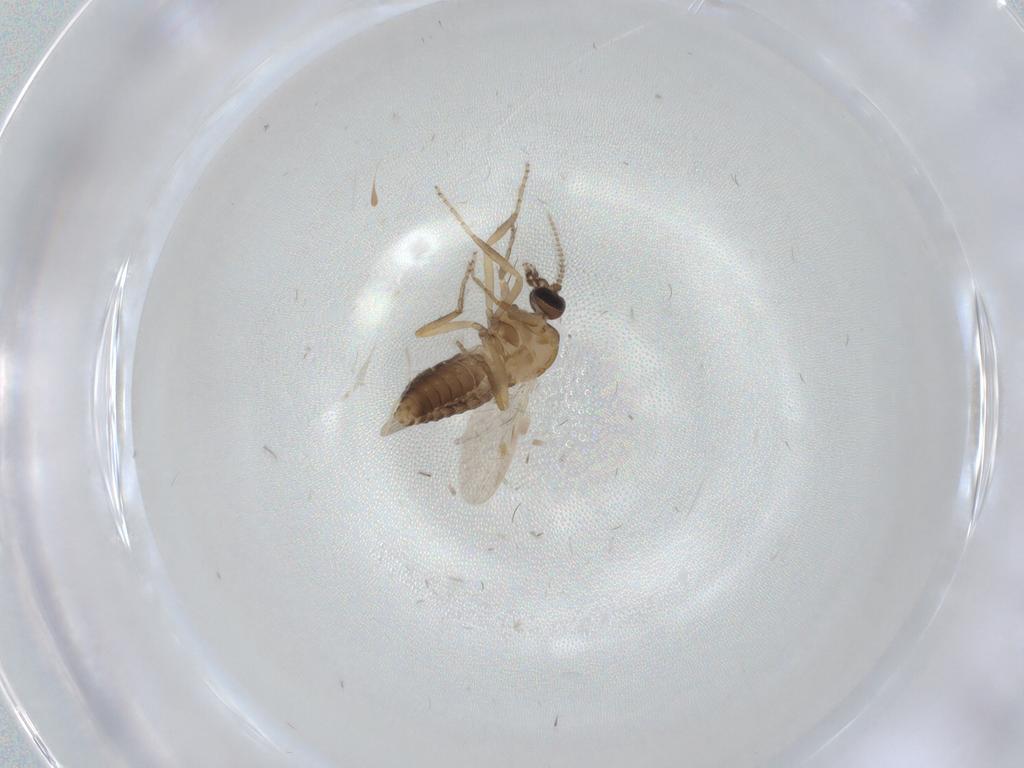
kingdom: Animalia
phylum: Arthropoda
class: Insecta
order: Diptera
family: Ceratopogonidae
